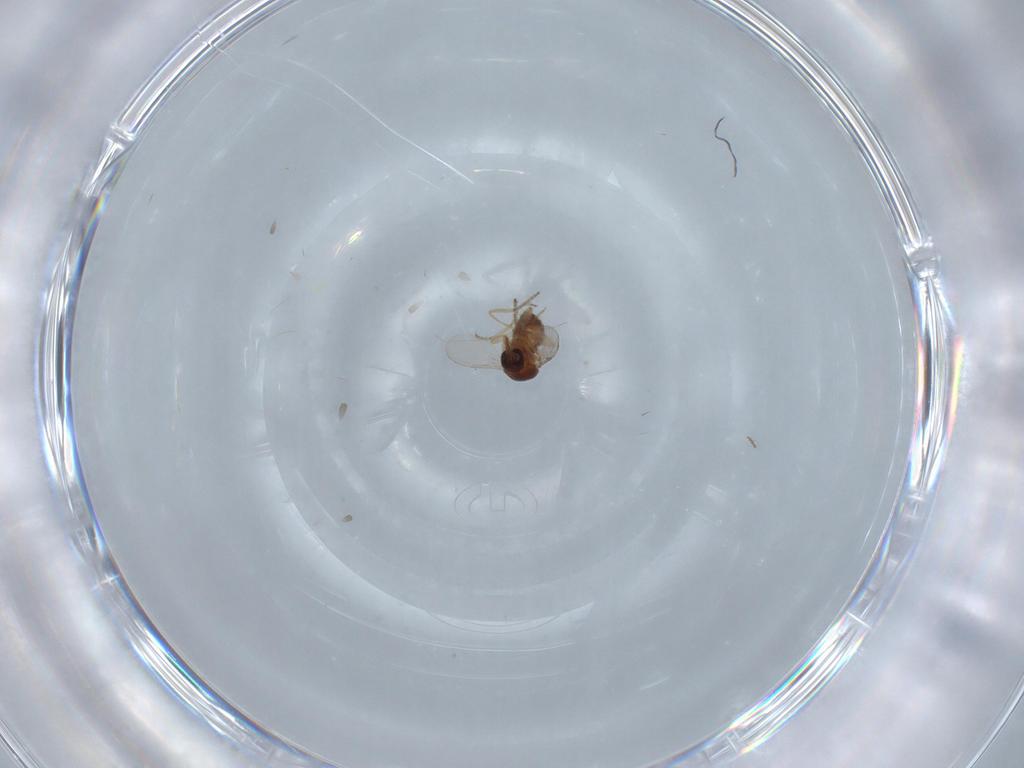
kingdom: Animalia
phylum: Arthropoda
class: Insecta
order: Diptera
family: Ceratopogonidae
